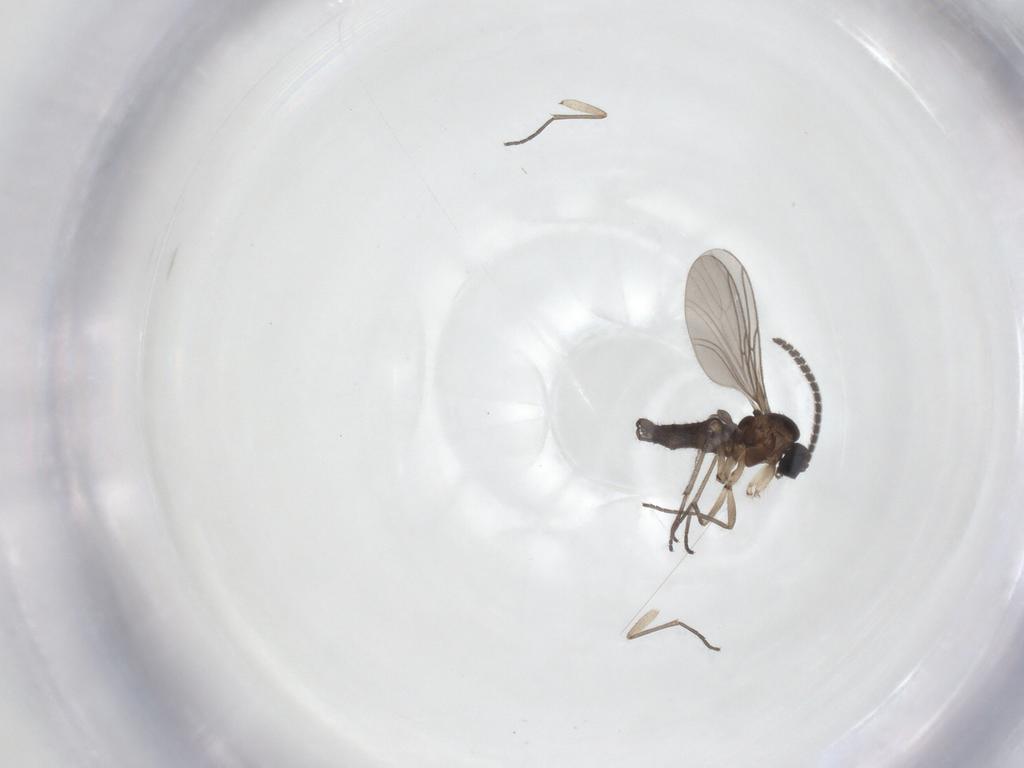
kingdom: Animalia
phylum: Arthropoda
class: Insecta
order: Diptera
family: Sciaridae
